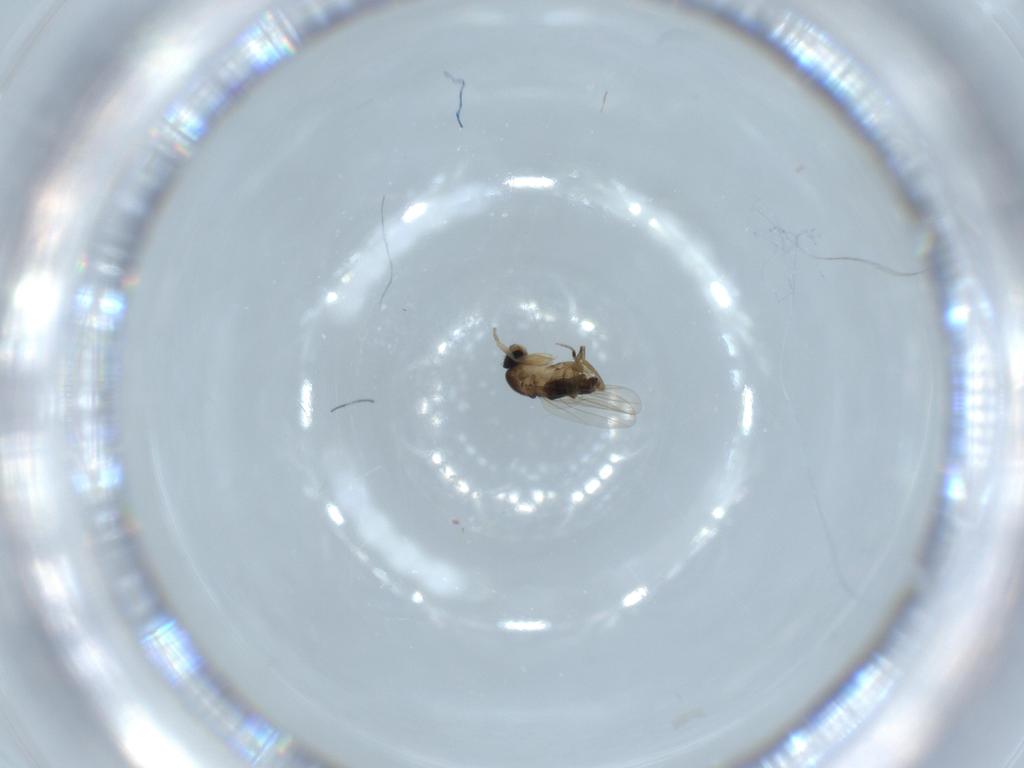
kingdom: Animalia
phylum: Arthropoda
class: Insecta
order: Diptera
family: Phoridae
